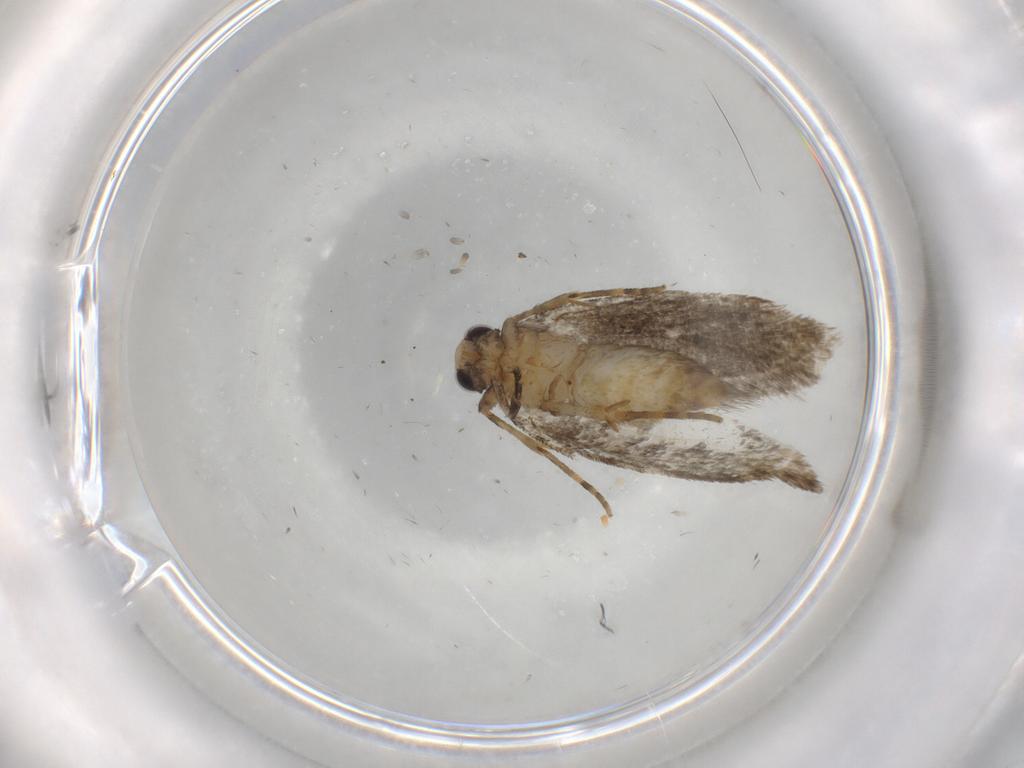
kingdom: Animalia
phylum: Arthropoda
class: Insecta
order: Lepidoptera
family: Tineidae
